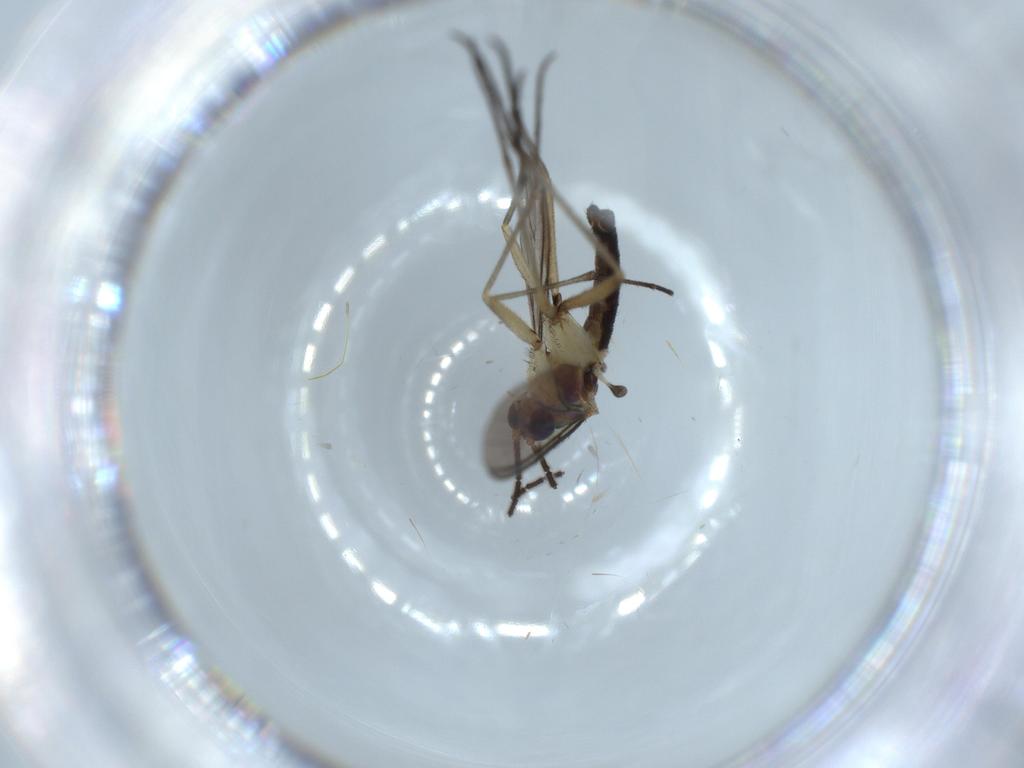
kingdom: Animalia
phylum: Arthropoda
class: Insecta
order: Diptera
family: Sciaridae
